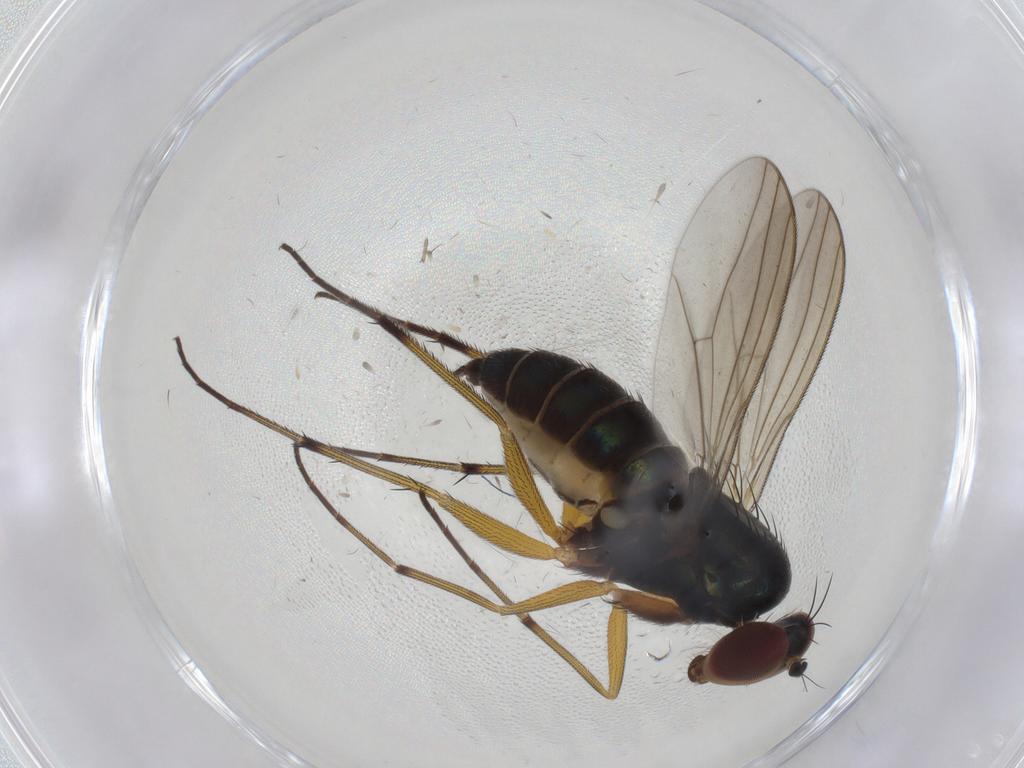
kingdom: Animalia
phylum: Arthropoda
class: Insecta
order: Diptera
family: Dolichopodidae
